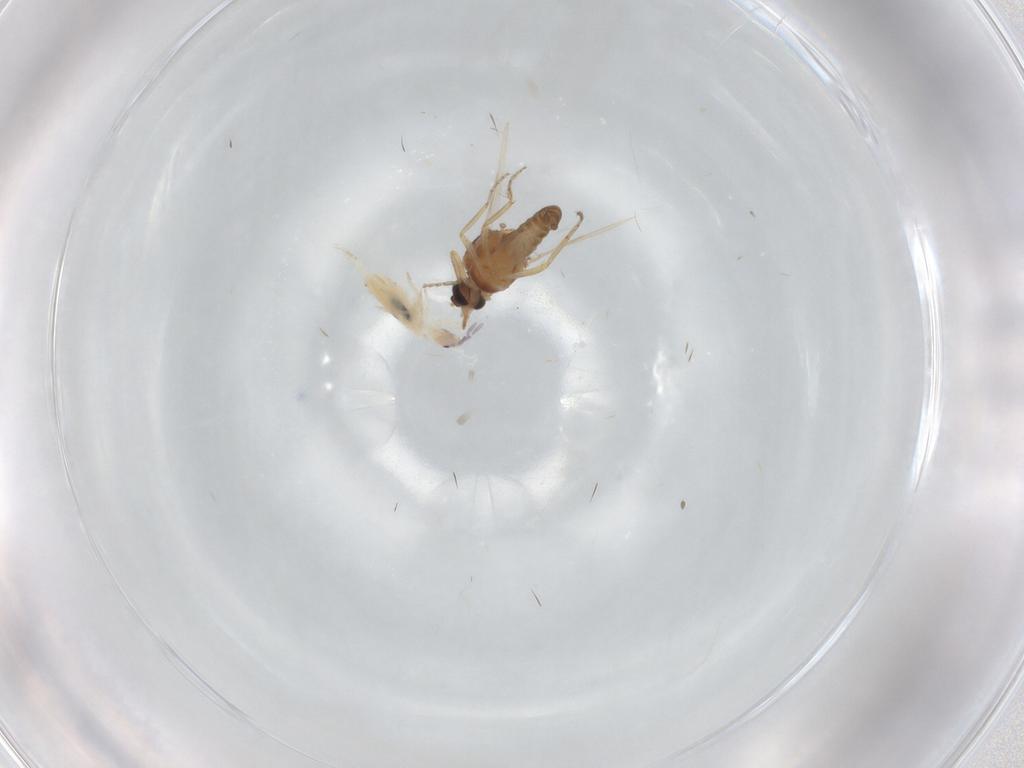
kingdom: Animalia
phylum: Arthropoda
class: Insecta
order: Diptera
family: Ceratopogonidae
